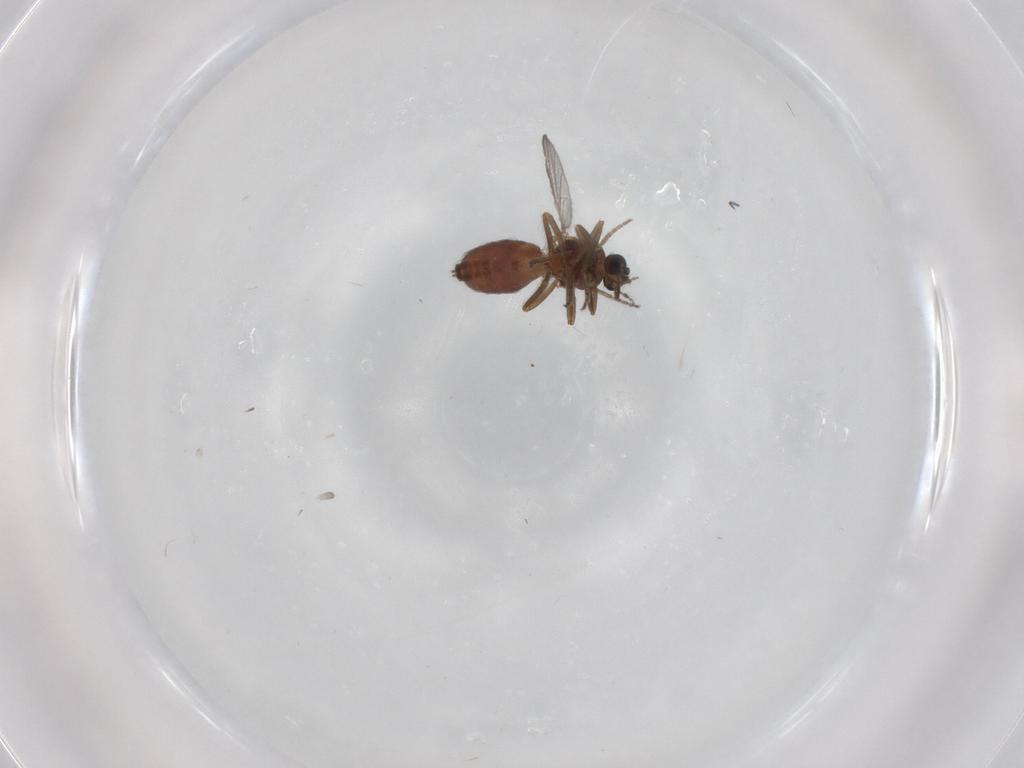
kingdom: Animalia
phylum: Arthropoda
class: Insecta
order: Diptera
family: Ceratopogonidae
